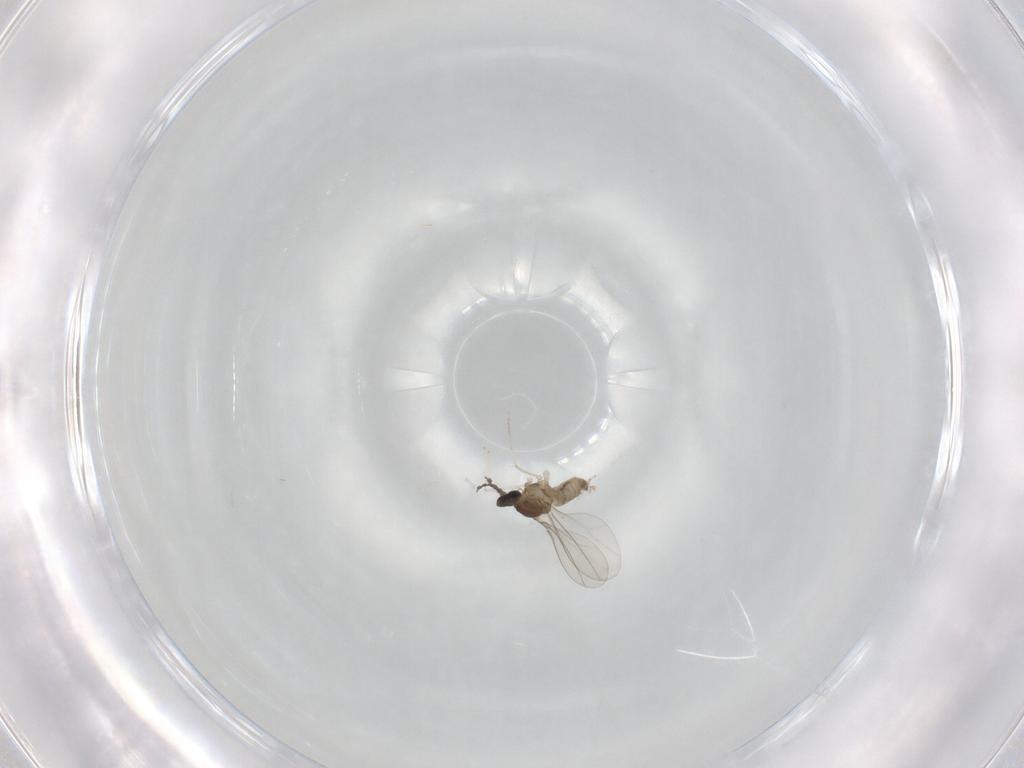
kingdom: Animalia
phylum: Arthropoda
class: Insecta
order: Diptera
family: Cecidomyiidae
